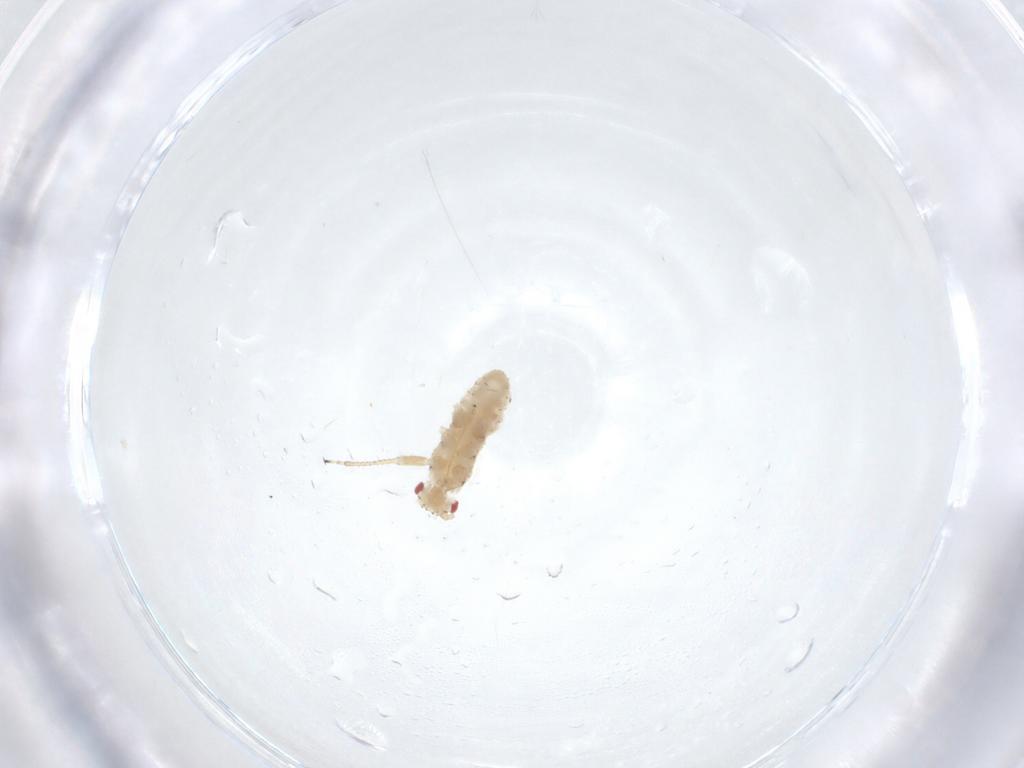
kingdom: Animalia
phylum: Arthropoda
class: Insecta
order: Hemiptera
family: Aphididae
